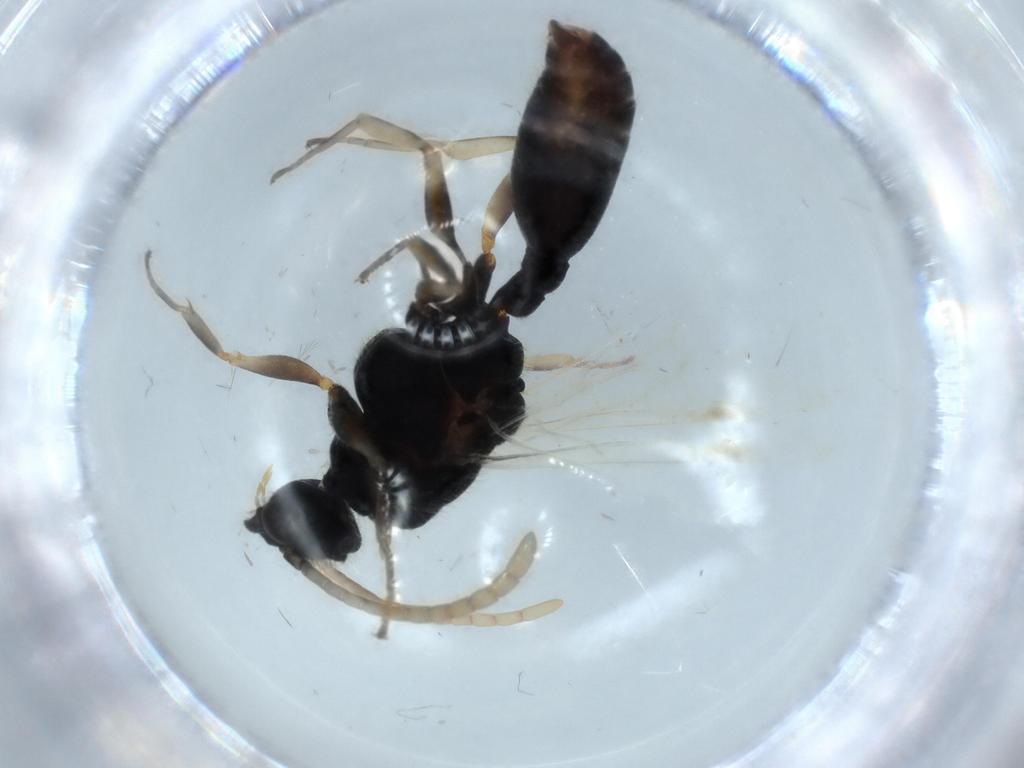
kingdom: Animalia
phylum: Arthropoda
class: Insecta
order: Hymenoptera
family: Formicidae
